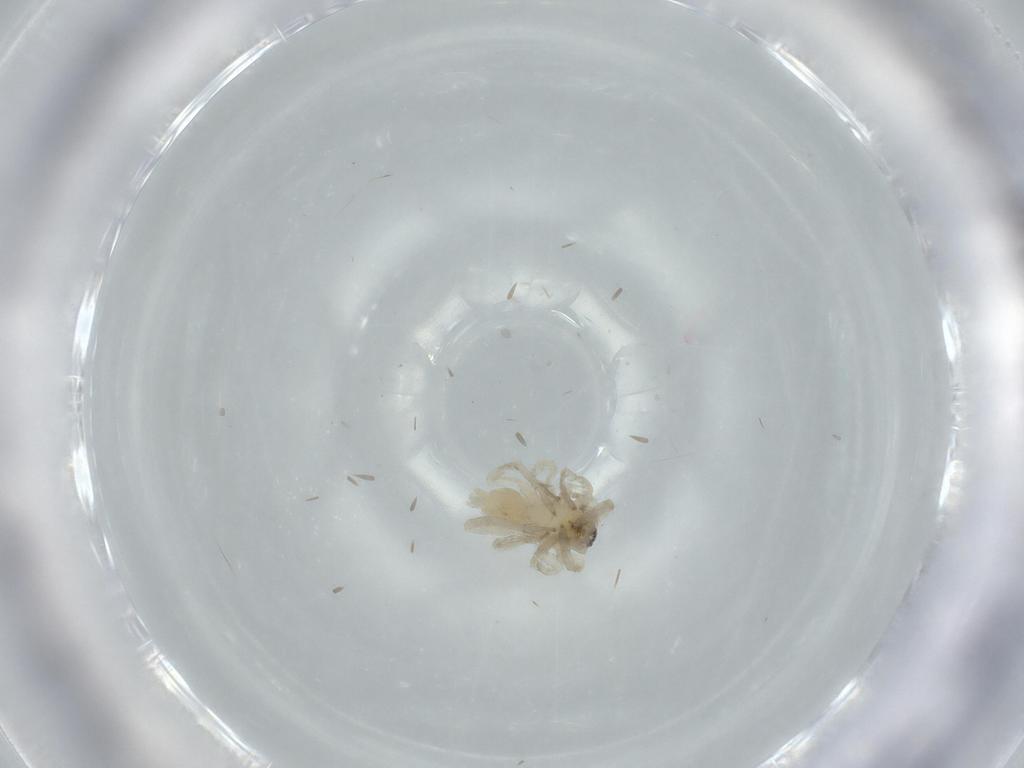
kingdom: Animalia
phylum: Arthropoda
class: Arachnida
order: Araneae
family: Anyphaenidae
